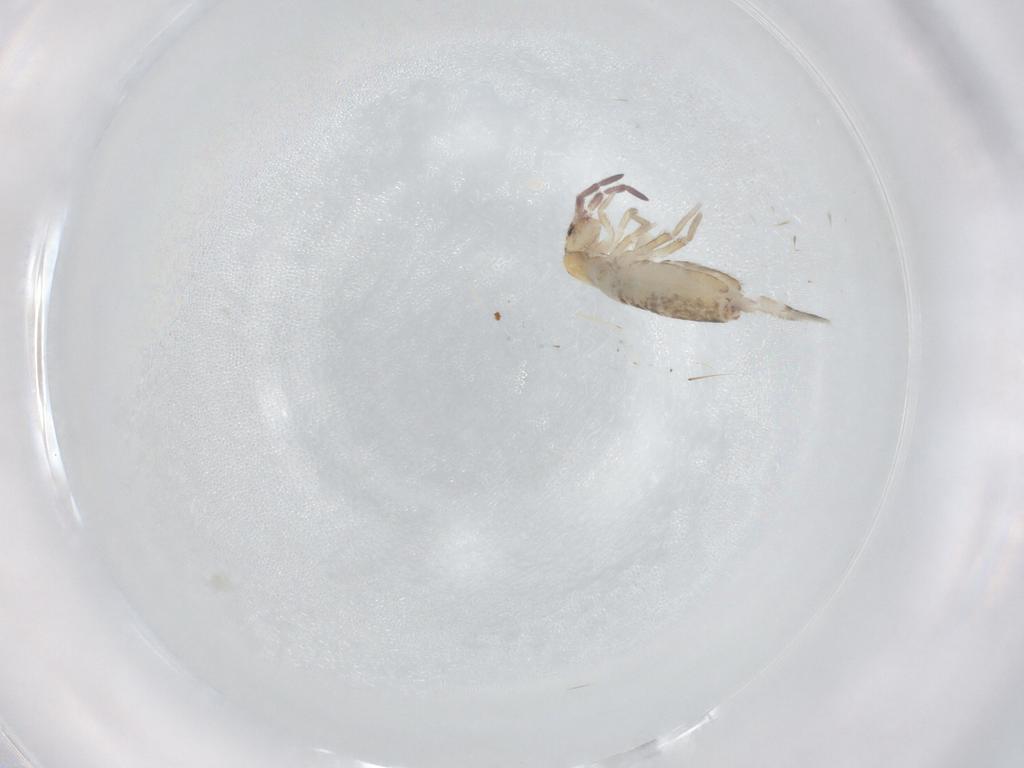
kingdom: Animalia
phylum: Arthropoda
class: Collembola
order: Entomobryomorpha
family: Entomobryidae
